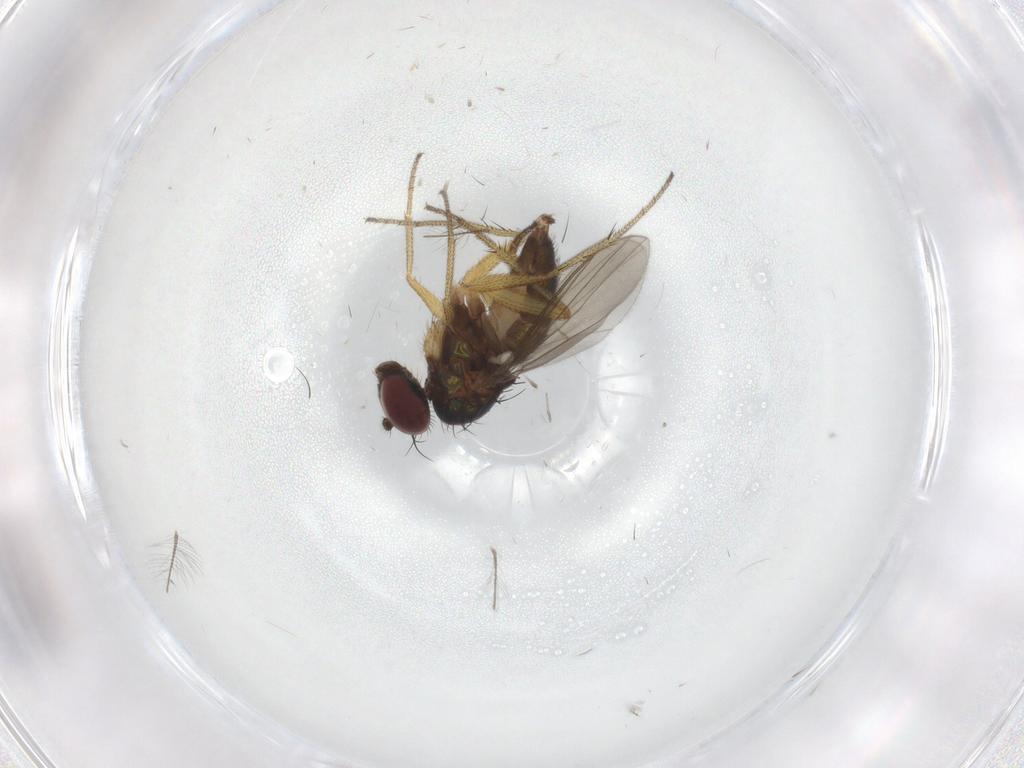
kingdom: Animalia
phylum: Arthropoda
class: Insecta
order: Diptera
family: Chironomidae
